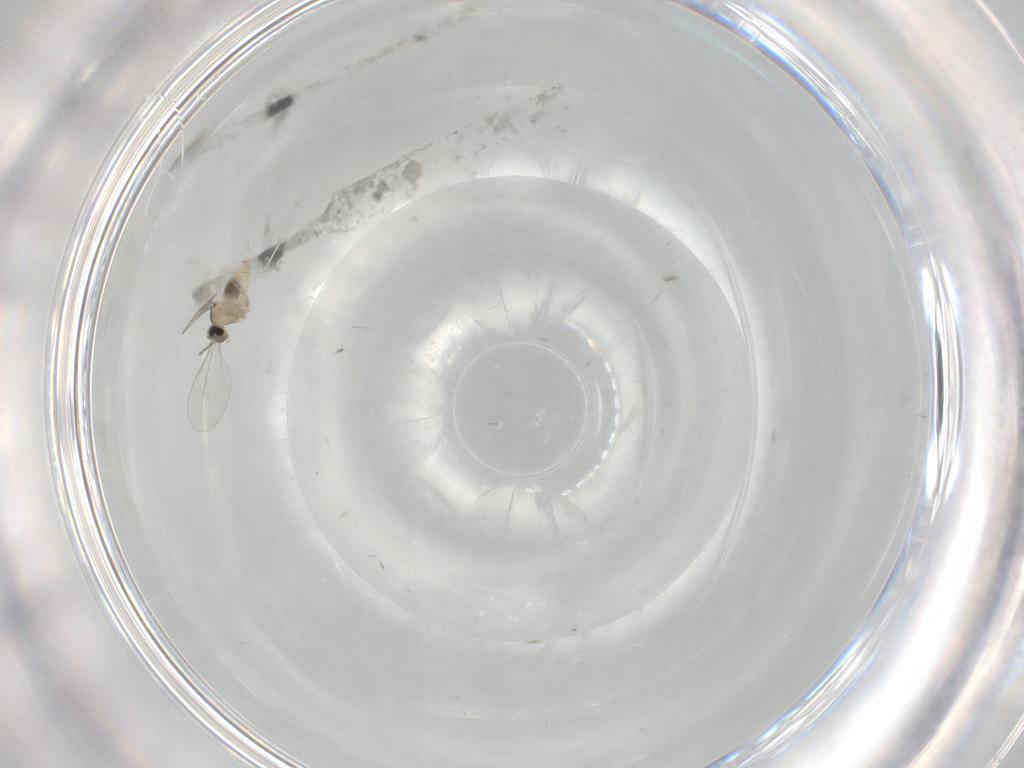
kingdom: Animalia
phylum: Arthropoda
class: Insecta
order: Diptera
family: Cecidomyiidae
